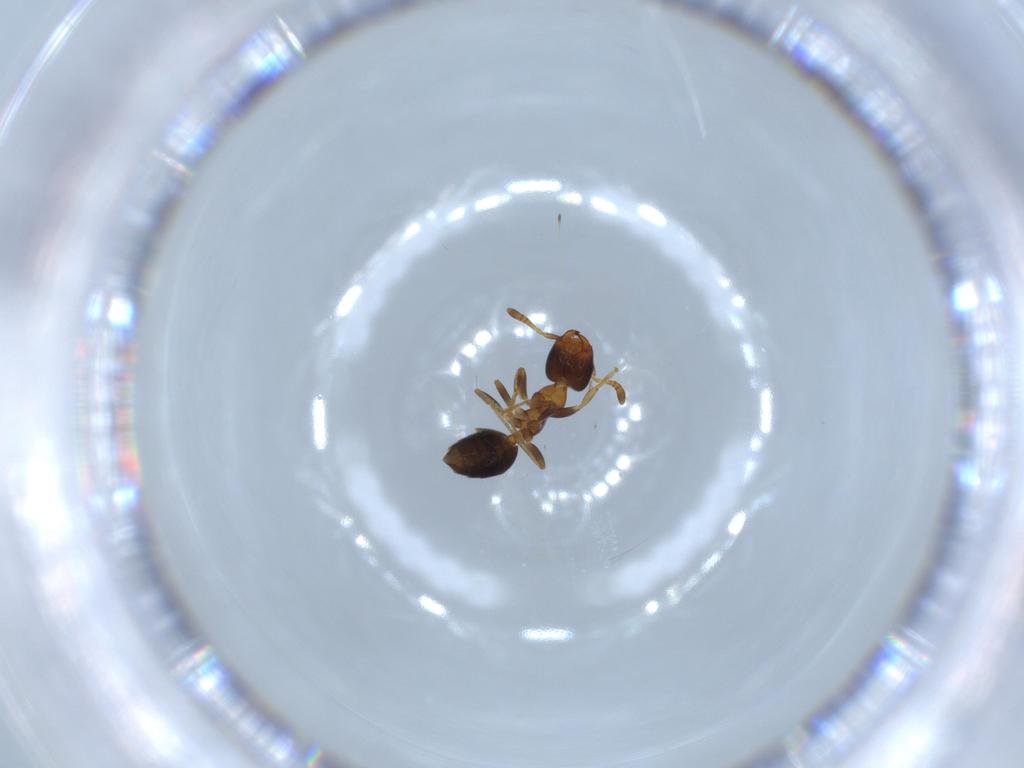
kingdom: Animalia
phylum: Arthropoda
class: Insecta
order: Hymenoptera
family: Formicidae
